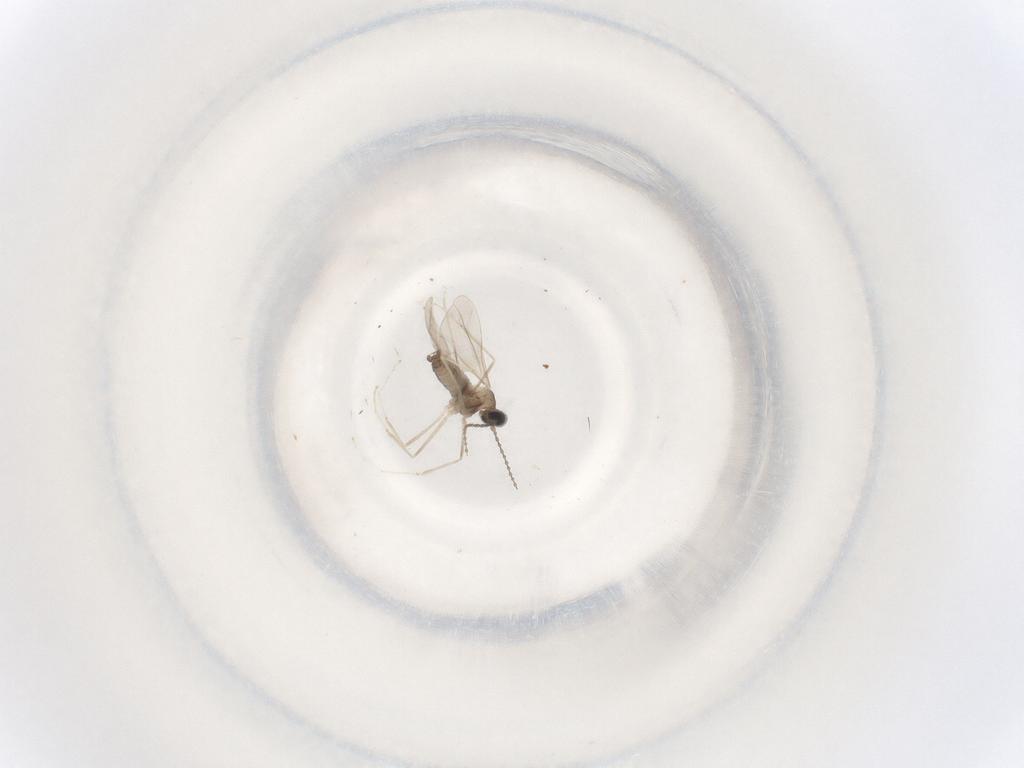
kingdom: Animalia
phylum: Arthropoda
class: Insecta
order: Diptera
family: Cecidomyiidae
